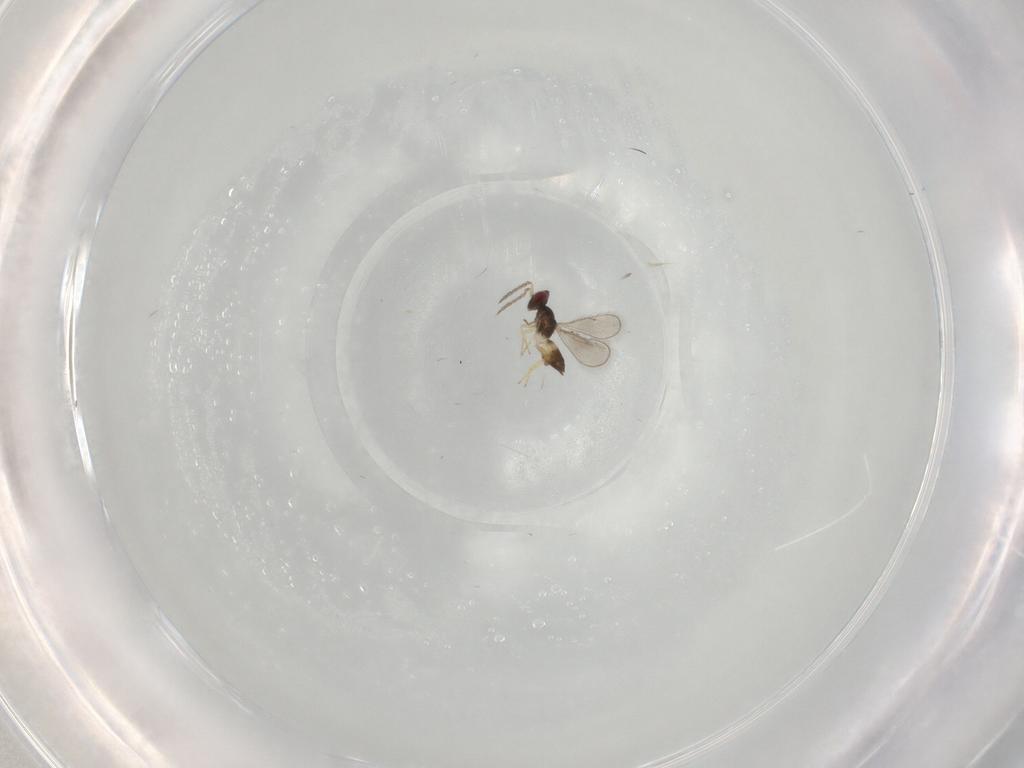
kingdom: Animalia
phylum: Arthropoda
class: Insecta
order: Hymenoptera
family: Eulophidae
